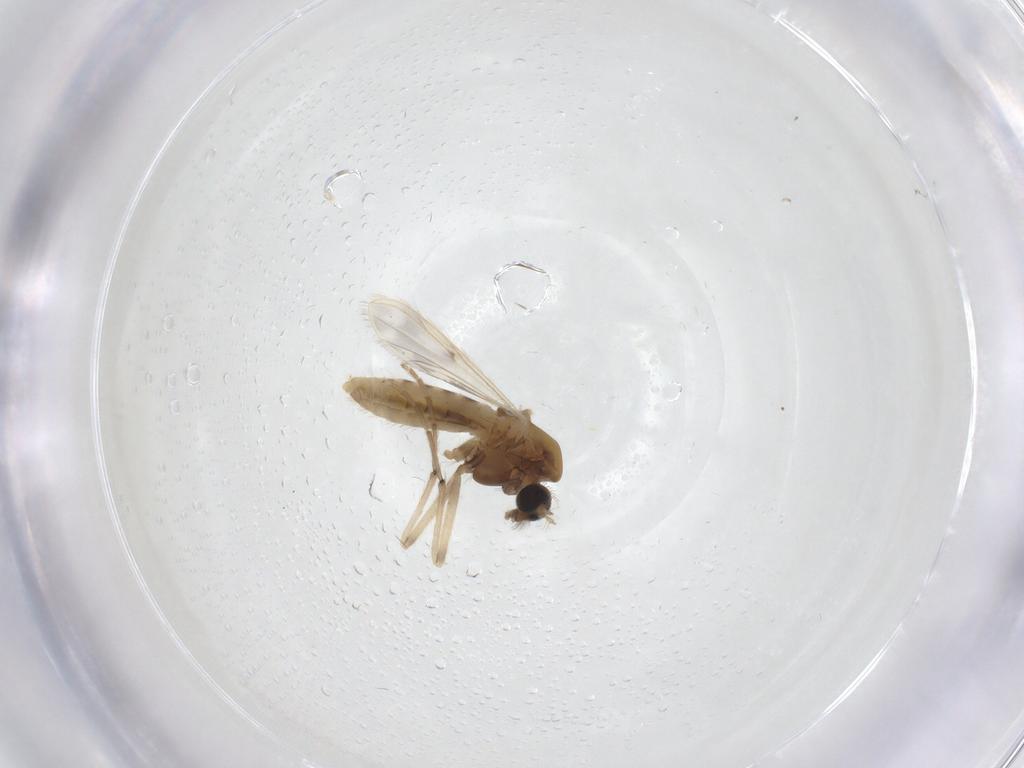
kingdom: Animalia
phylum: Arthropoda
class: Insecta
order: Diptera
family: Chironomidae
